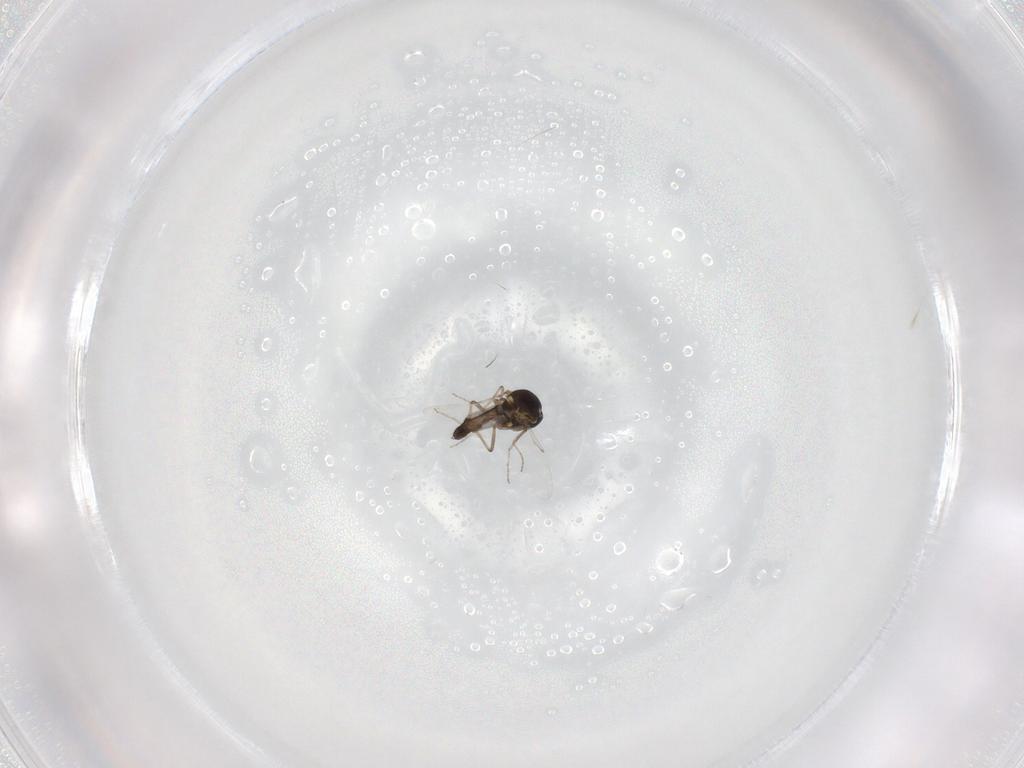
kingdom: Animalia
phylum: Arthropoda
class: Insecta
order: Diptera
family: Ceratopogonidae
